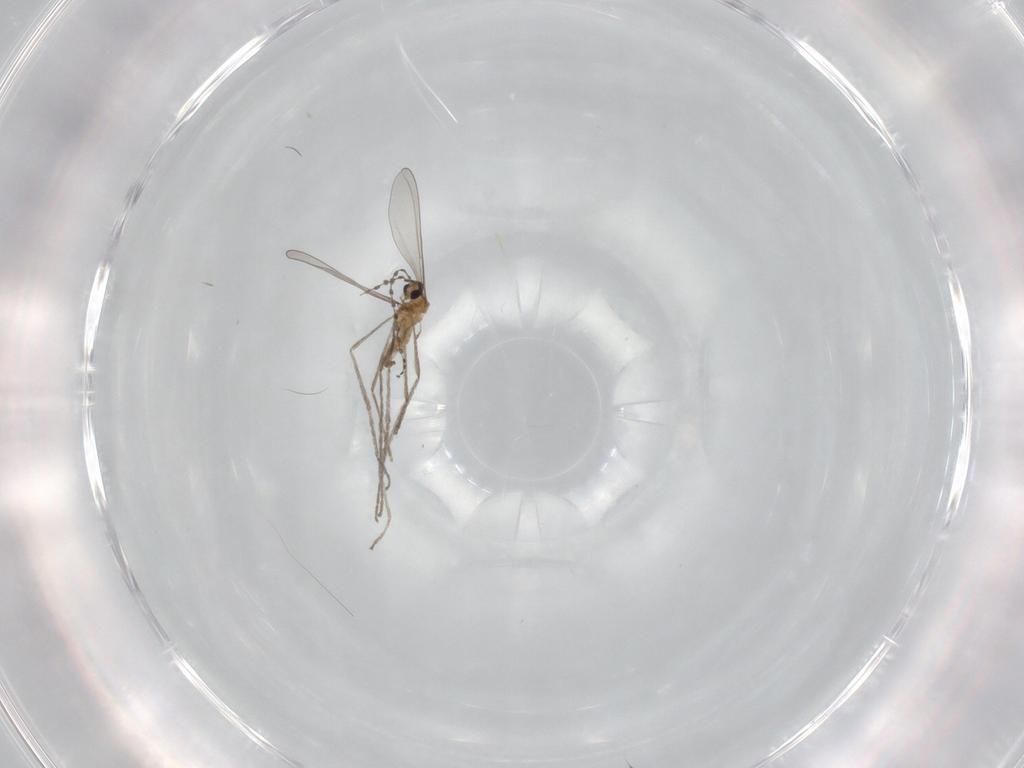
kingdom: Animalia
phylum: Arthropoda
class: Insecta
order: Diptera
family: Cecidomyiidae
